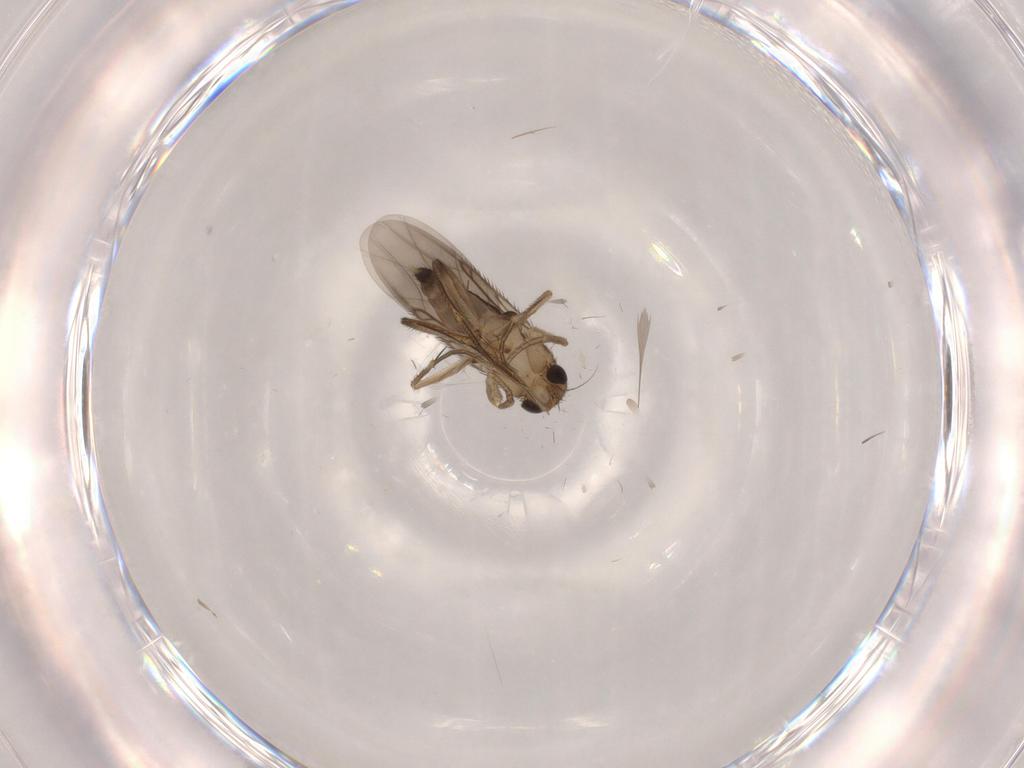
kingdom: Animalia
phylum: Arthropoda
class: Insecta
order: Diptera
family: Phoridae
